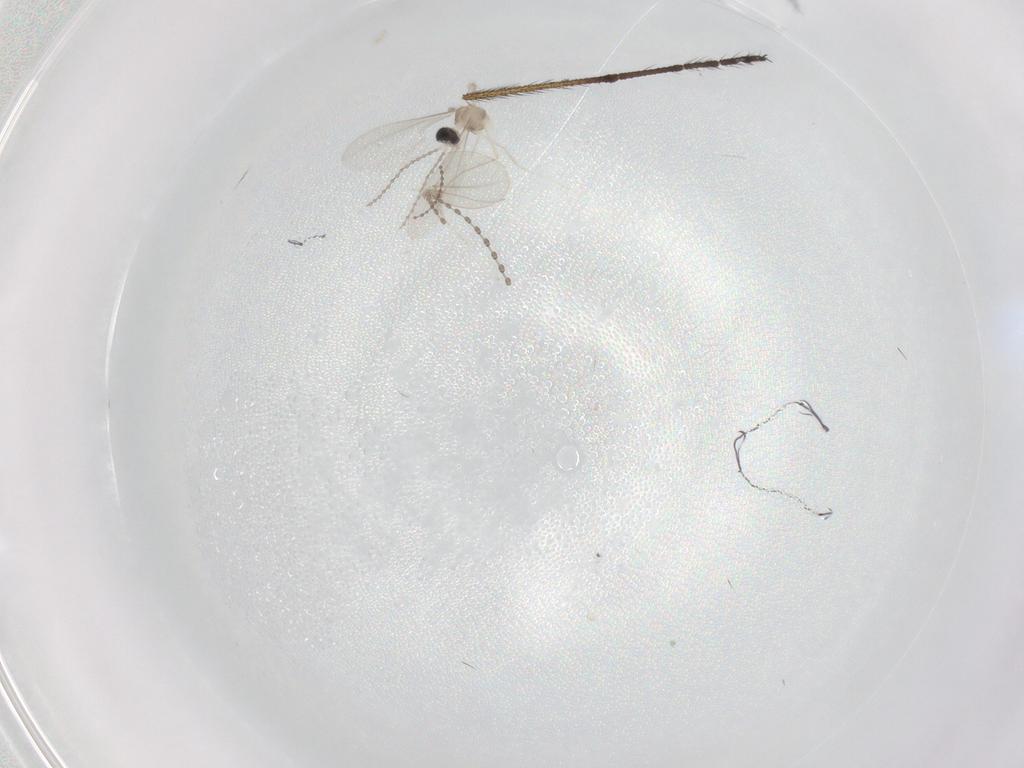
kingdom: Animalia
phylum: Arthropoda
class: Insecta
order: Diptera
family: Limoniidae
